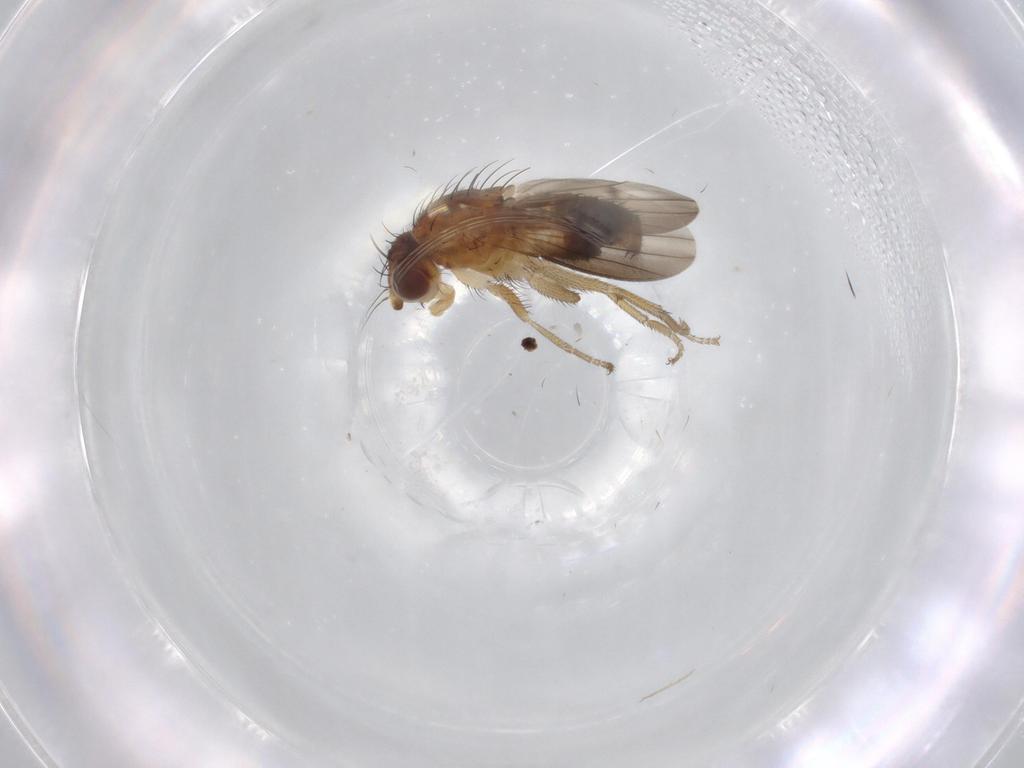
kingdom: Animalia
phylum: Arthropoda
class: Insecta
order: Diptera
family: Heleomyzidae
